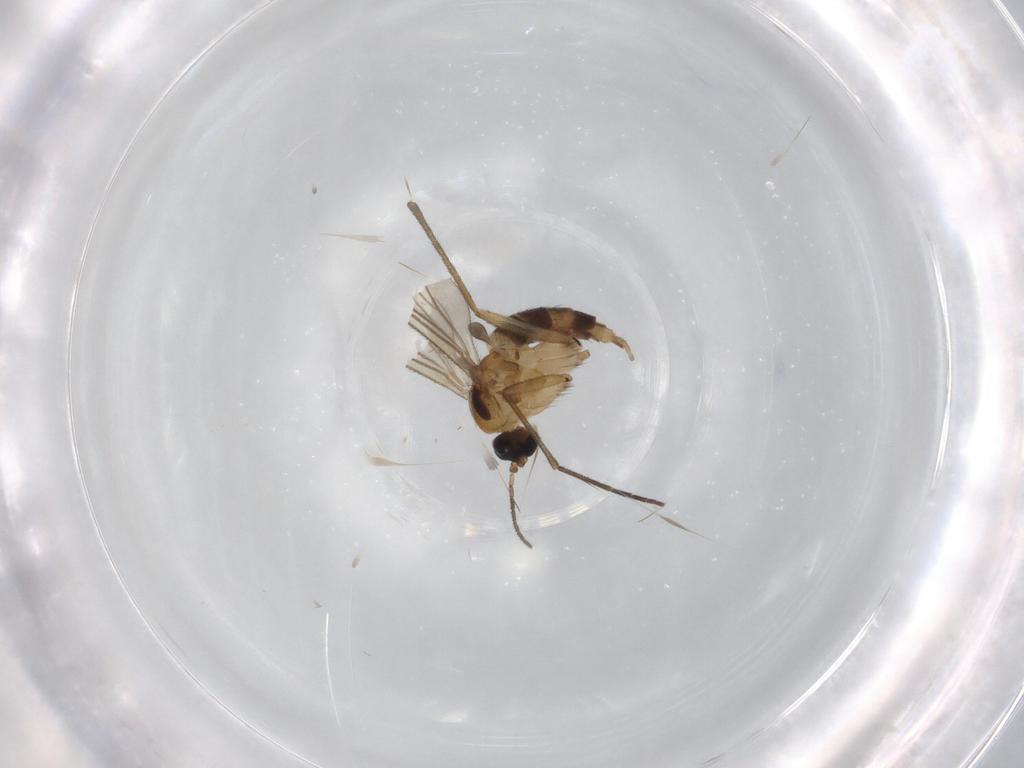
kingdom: Animalia
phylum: Arthropoda
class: Insecta
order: Diptera
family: Sciaridae
